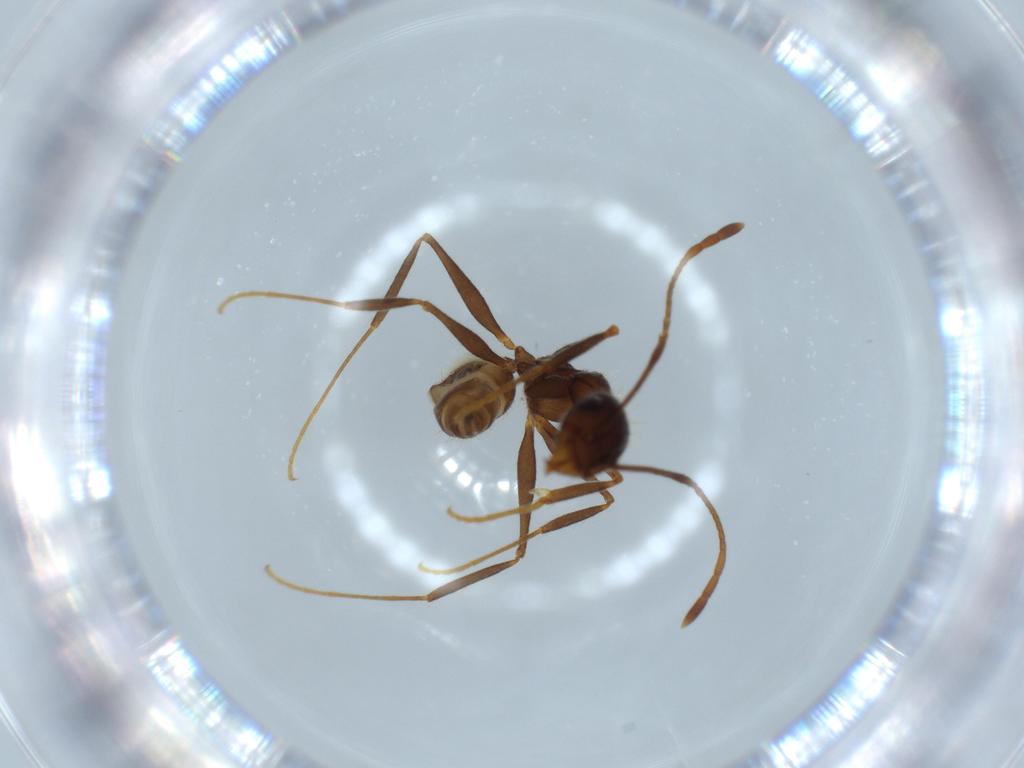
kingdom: Animalia
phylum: Arthropoda
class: Insecta
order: Hymenoptera
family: Formicidae
